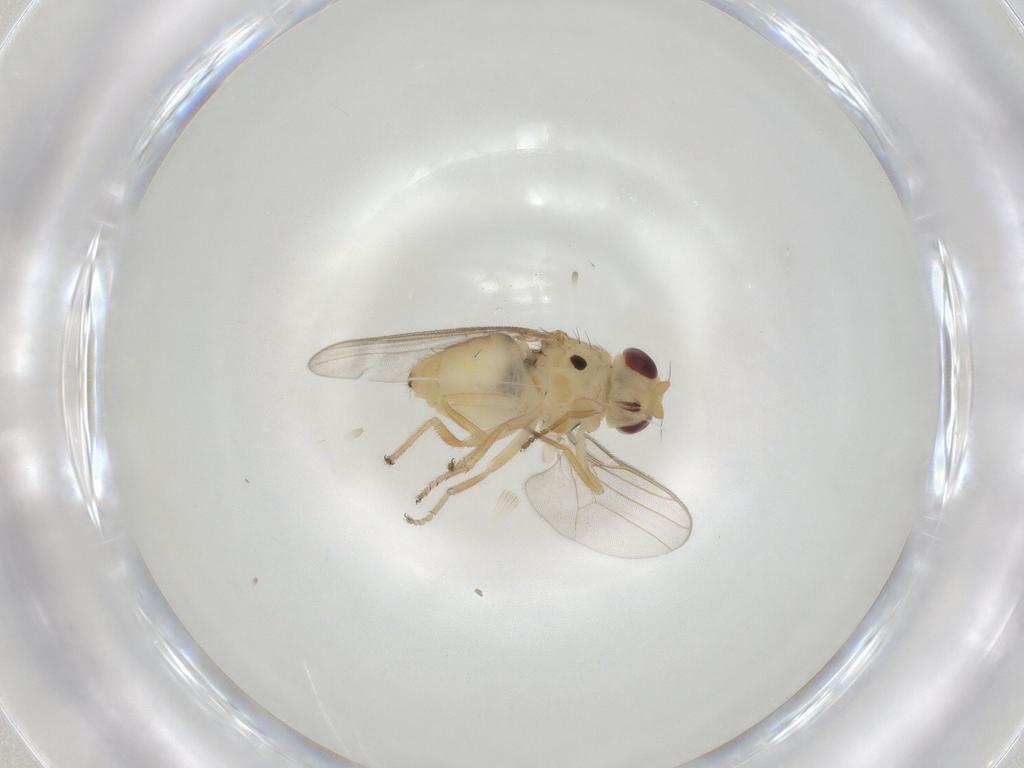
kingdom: Animalia
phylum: Arthropoda
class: Insecta
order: Diptera
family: Chloropidae
